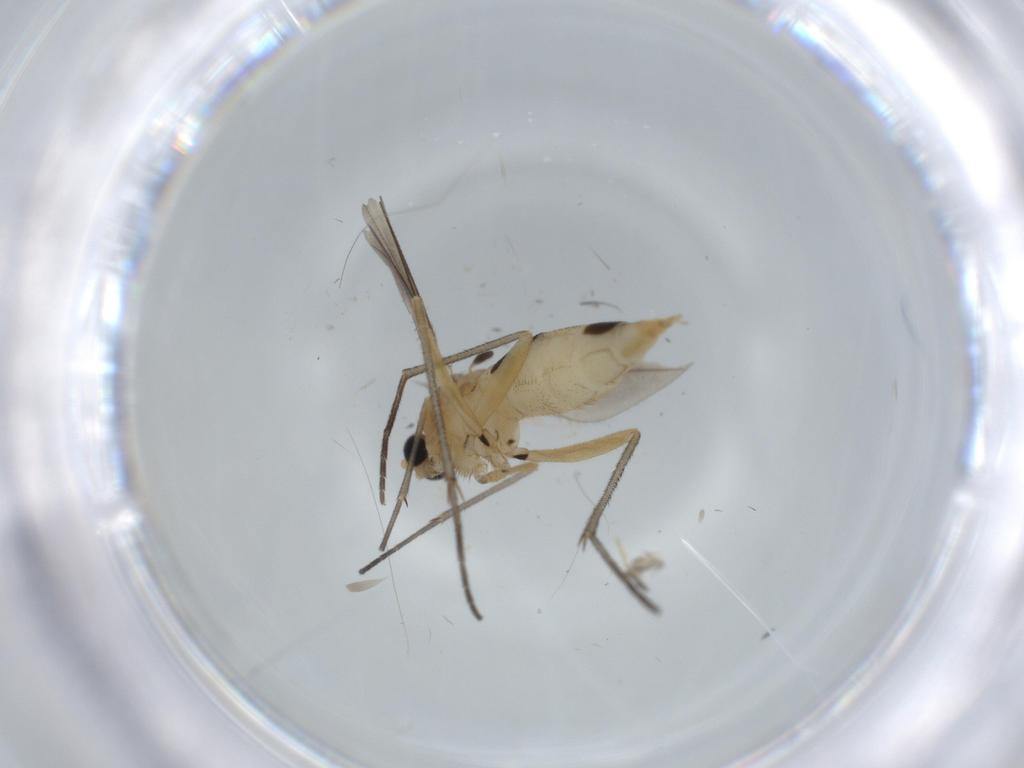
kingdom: Animalia
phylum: Arthropoda
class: Insecta
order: Diptera
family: Sciaridae
